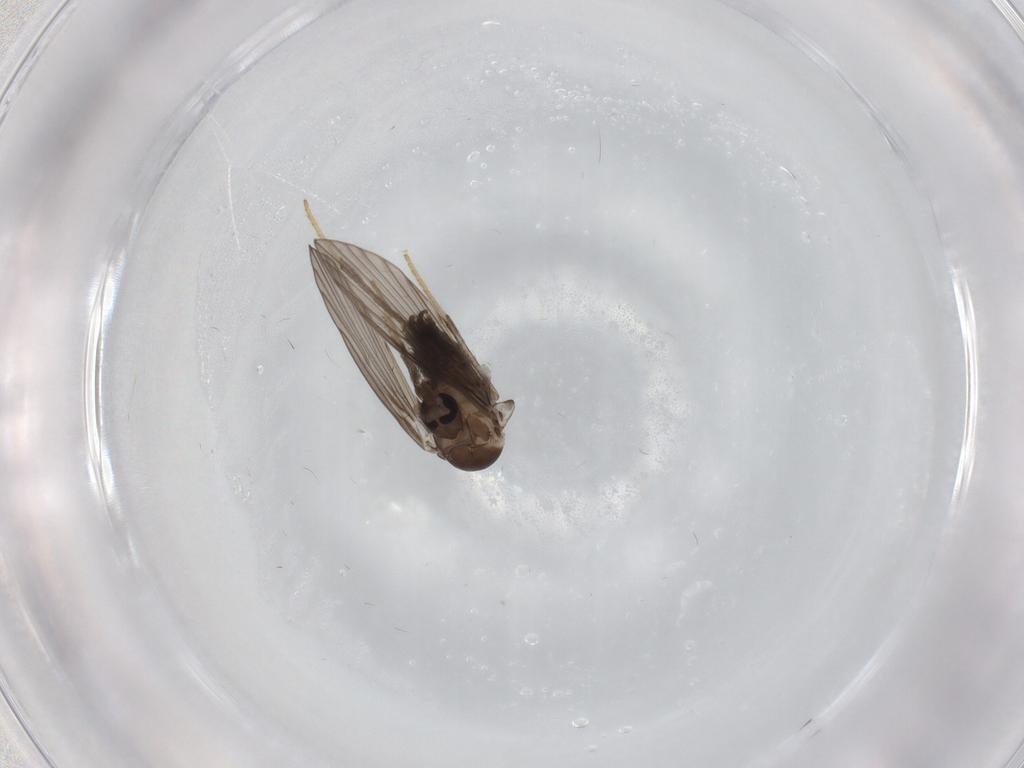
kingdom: Animalia
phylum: Arthropoda
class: Insecta
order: Diptera
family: Psychodidae
